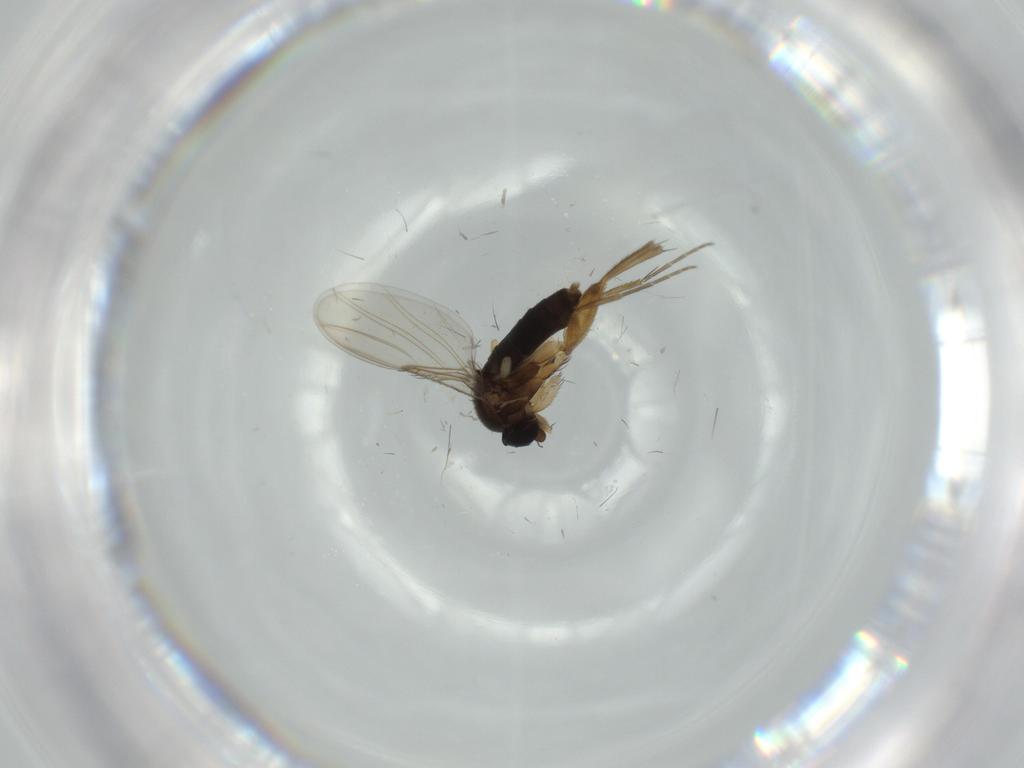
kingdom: Animalia
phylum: Arthropoda
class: Insecta
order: Diptera
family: Phoridae
